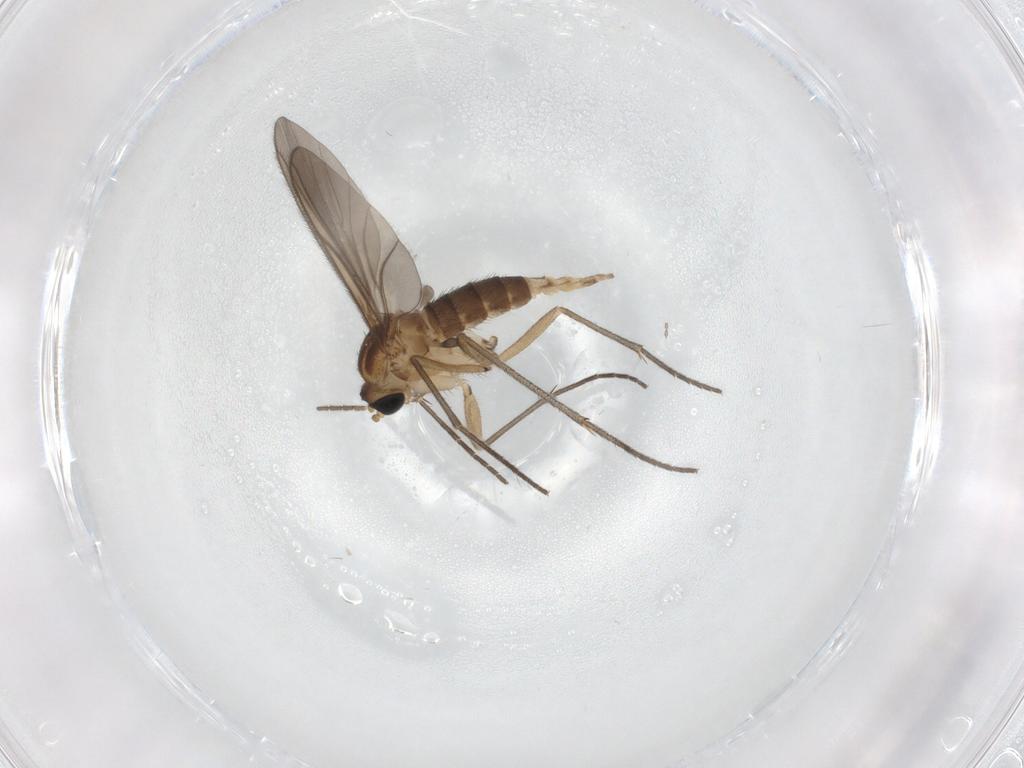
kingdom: Animalia
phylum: Arthropoda
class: Insecta
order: Diptera
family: Sciaridae
